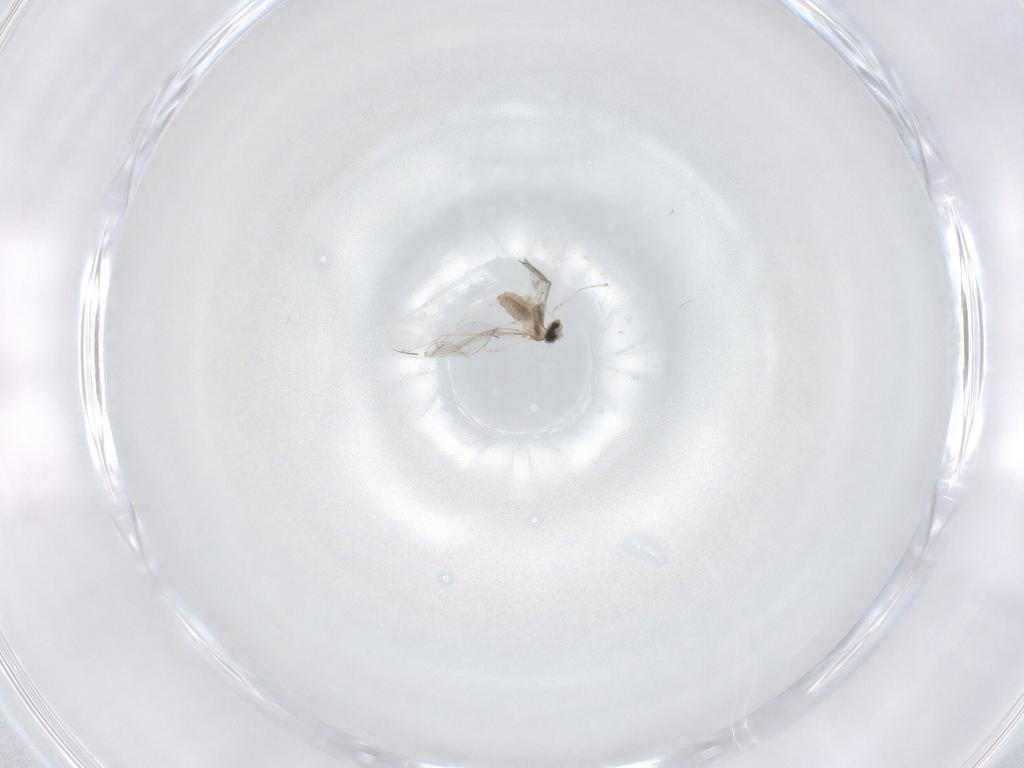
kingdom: Animalia
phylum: Arthropoda
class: Insecta
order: Diptera
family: Cecidomyiidae
